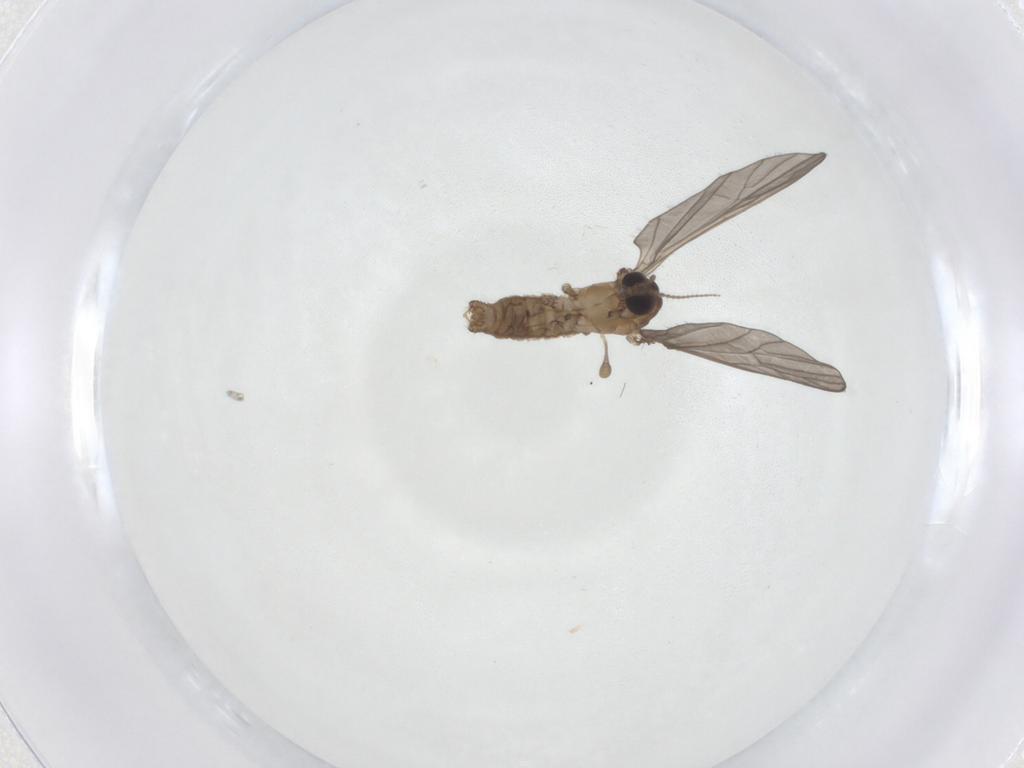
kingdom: Animalia
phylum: Arthropoda
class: Insecta
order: Diptera
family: Limoniidae
